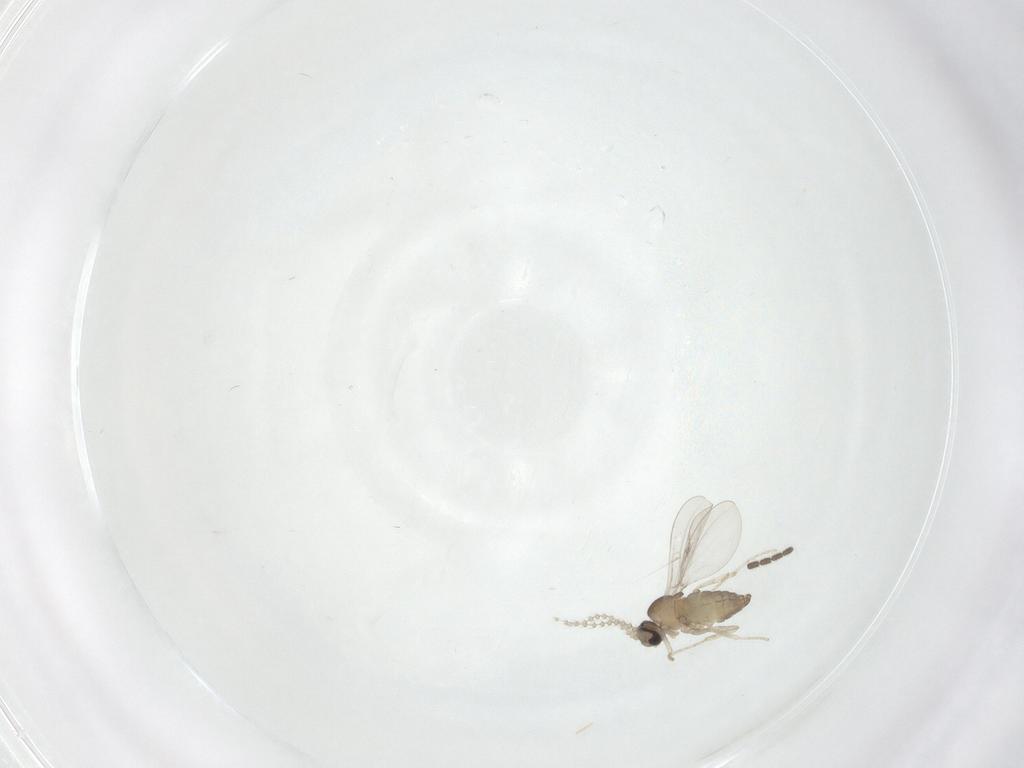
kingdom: Animalia
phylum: Arthropoda
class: Insecta
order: Diptera
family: Cecidomyiidae
